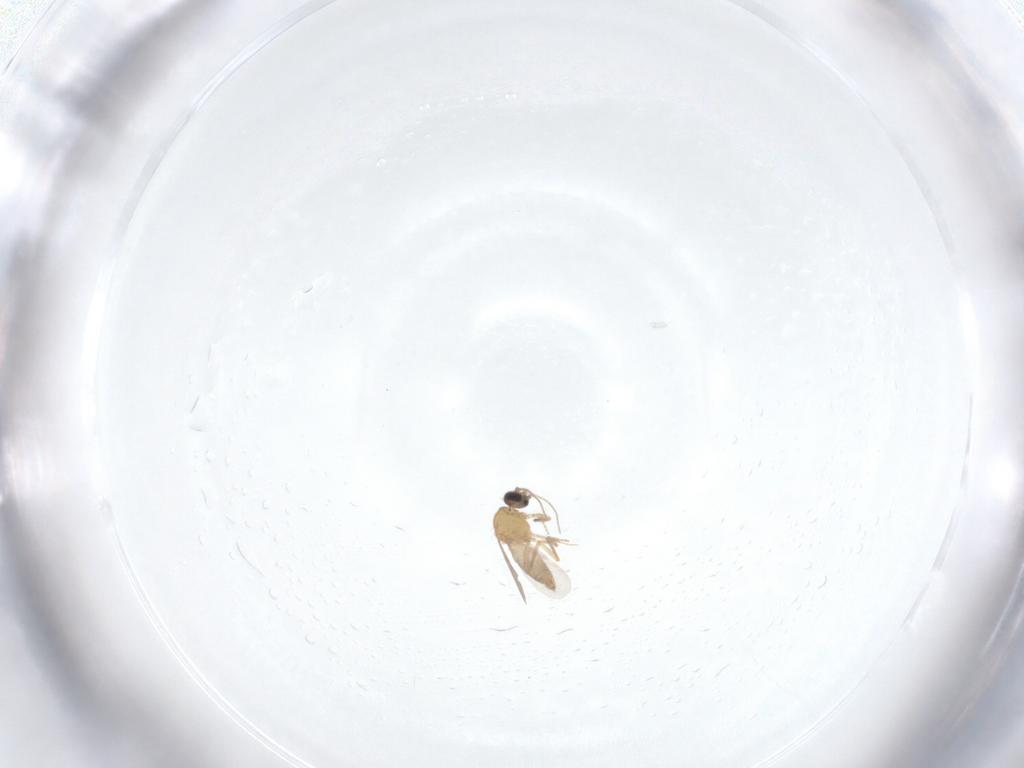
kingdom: Animalia
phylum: Arthropoda
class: Insecta
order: Diptera
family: Ceratopogonidae
